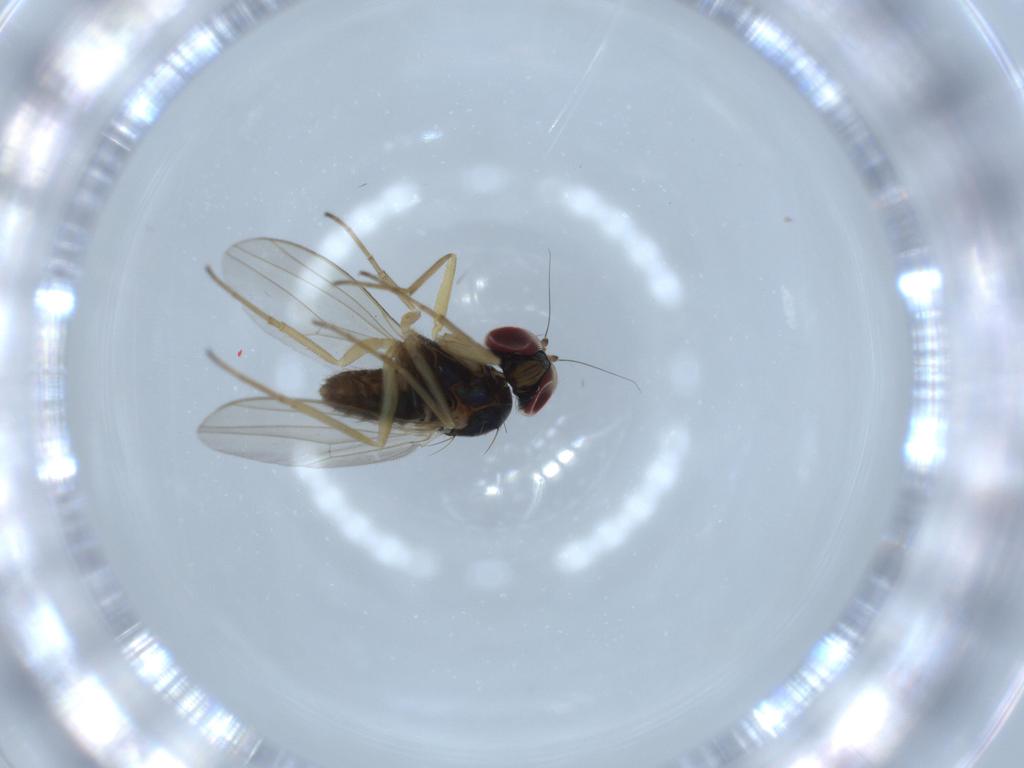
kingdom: Animalia
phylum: Arthropoda
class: Insecta
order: Diptera
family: Dolichopodidae
